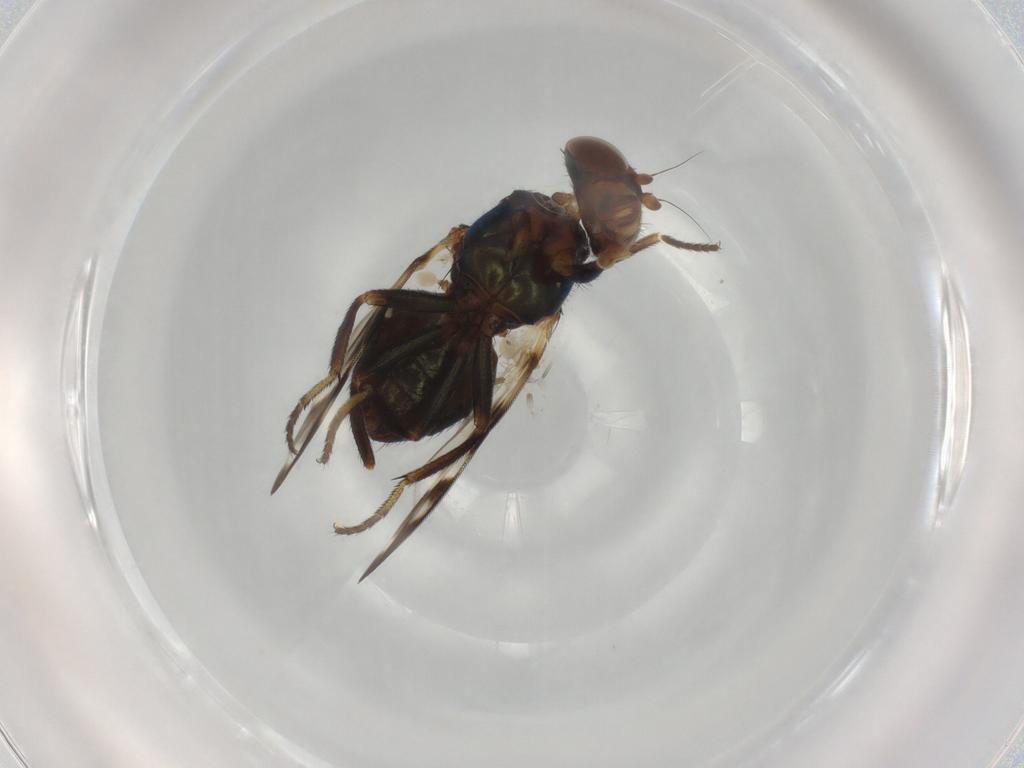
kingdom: Animalia
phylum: Arthropoda
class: Insecta
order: Diptera
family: Ulidiidae
